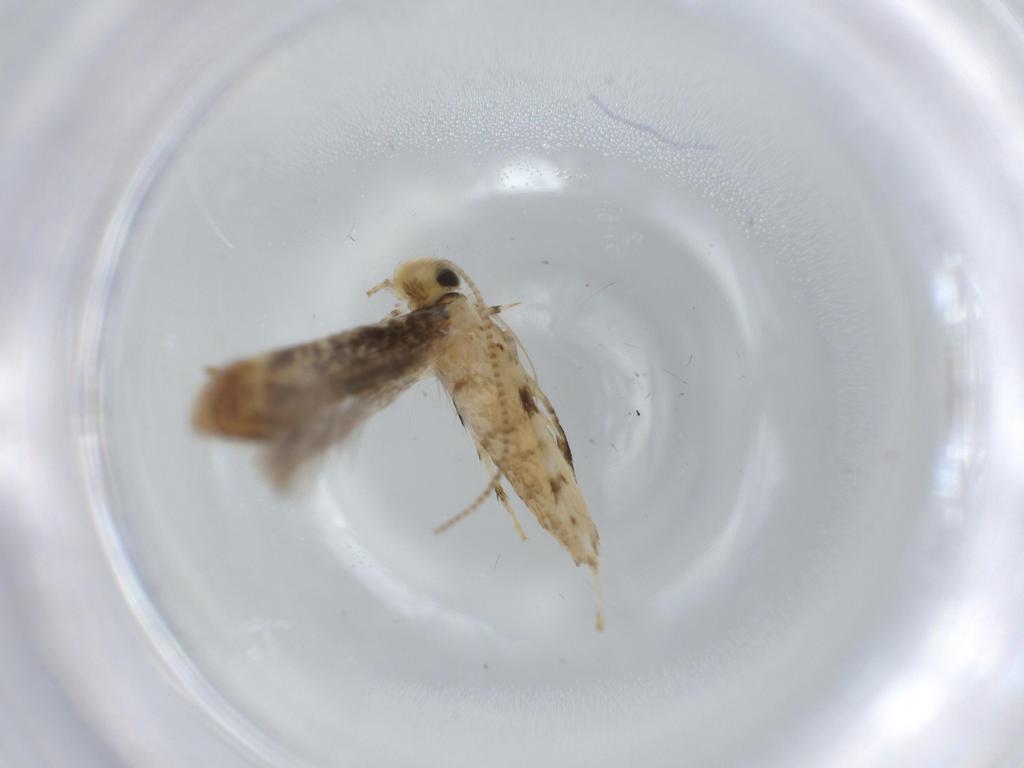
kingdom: Animalia
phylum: Arthropoda
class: Insecta
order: Lepidoptera
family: Gracillariidae
